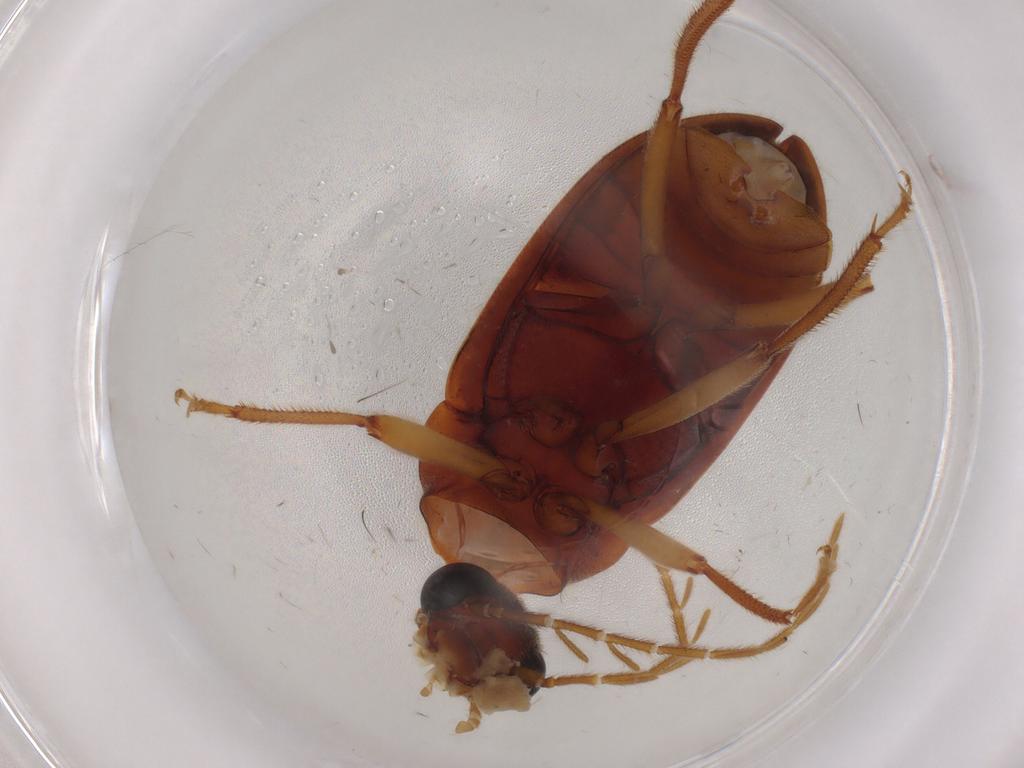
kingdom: Animalia
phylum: Arthropoda
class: Insecta
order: Coleoptera
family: Ptilodactylidae
